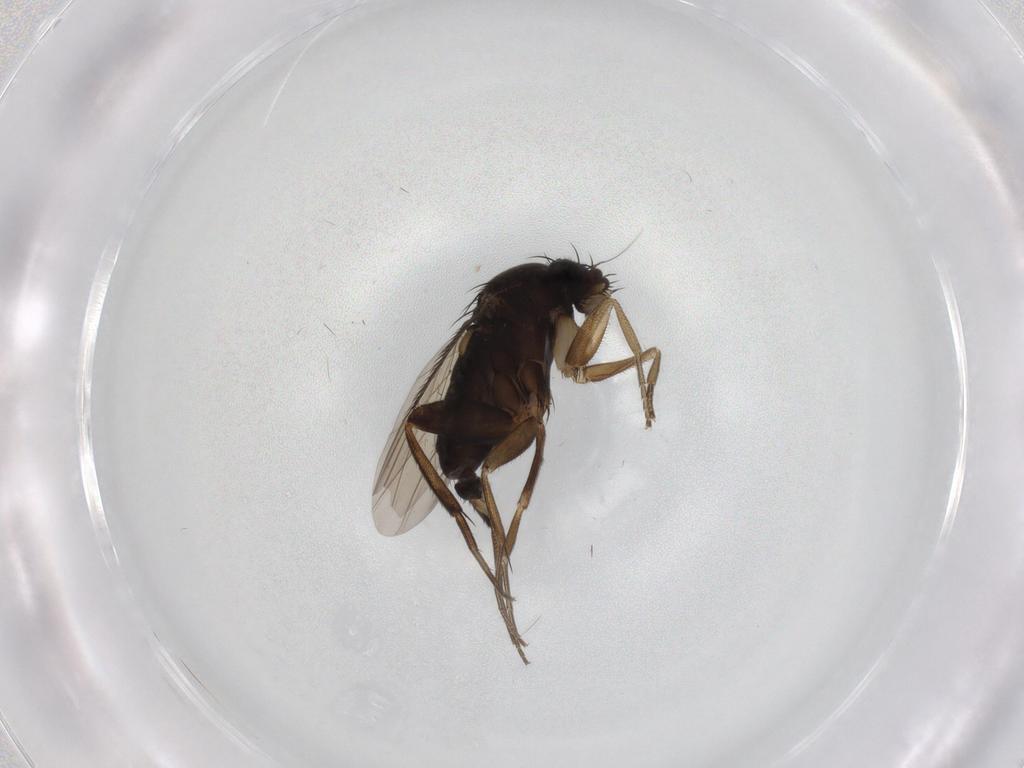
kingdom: Animalia
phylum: Arthropoda
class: Insecta
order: Diptera
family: Phoridae
